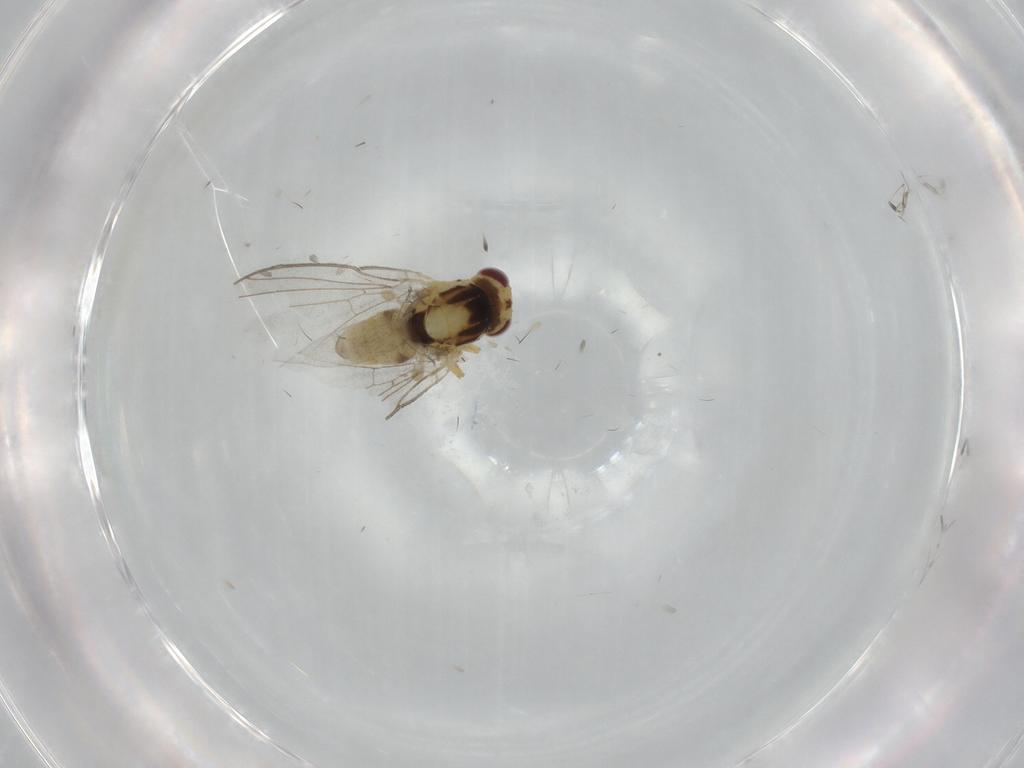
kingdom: Animalia
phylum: Arthropoda
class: Insecta
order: Diptera
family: Agromyzidae
